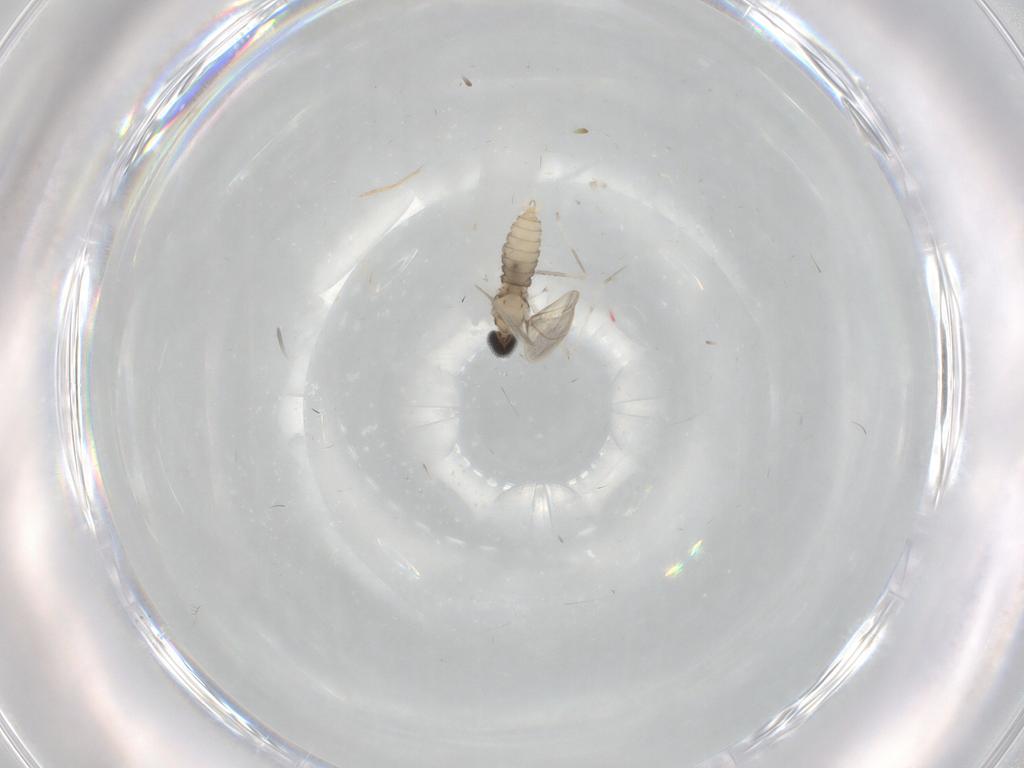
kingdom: Animalia
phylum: Arthropoda
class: Insecta
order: Diptera
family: Cecidomyiidae
